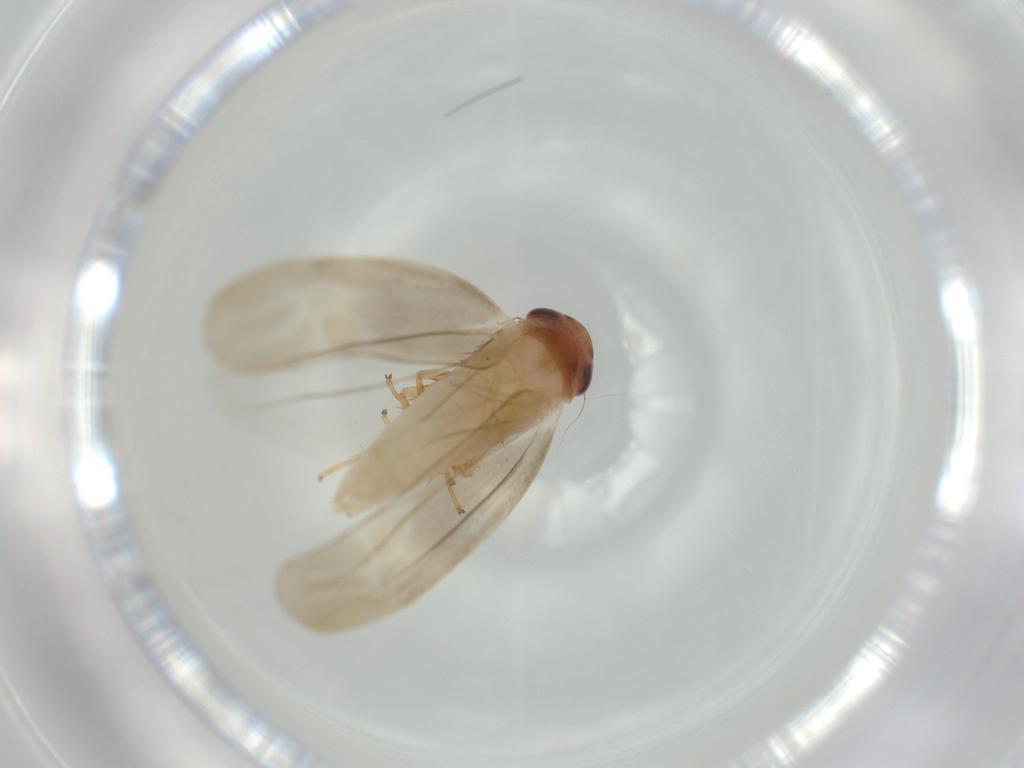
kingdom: Animalia
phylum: Arthropoda
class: Insecta
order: Hemiptera
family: Cicadellidae
